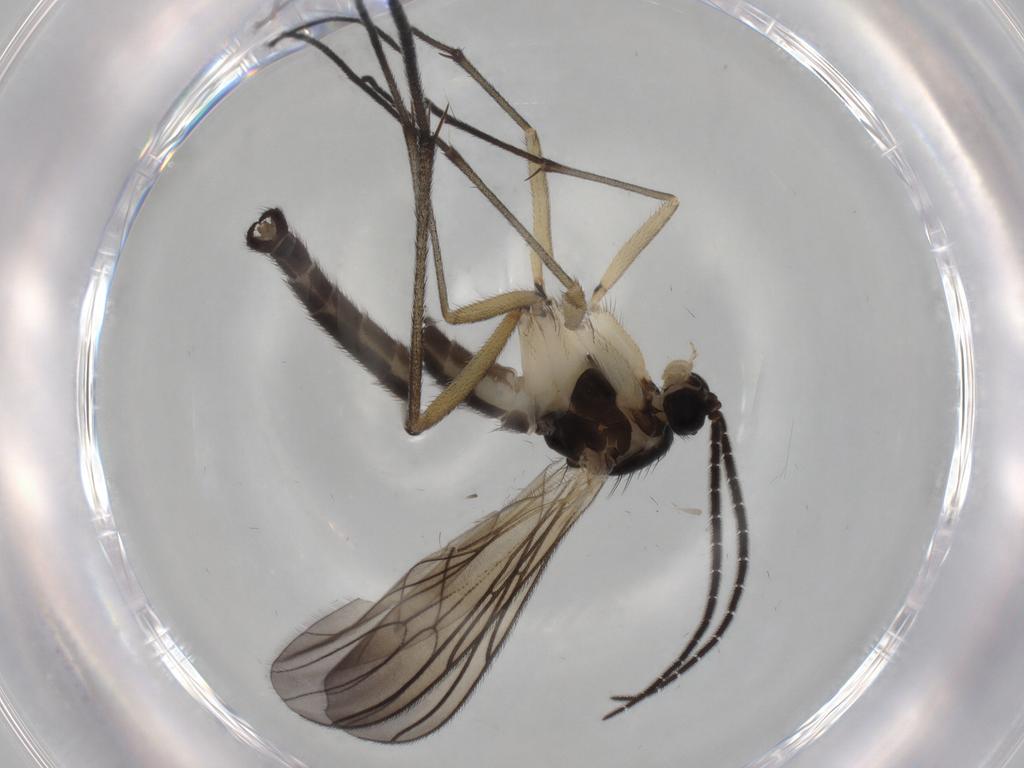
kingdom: Animalia
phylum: Arthropoda
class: Insecta
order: Diptera
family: Sciaridae
